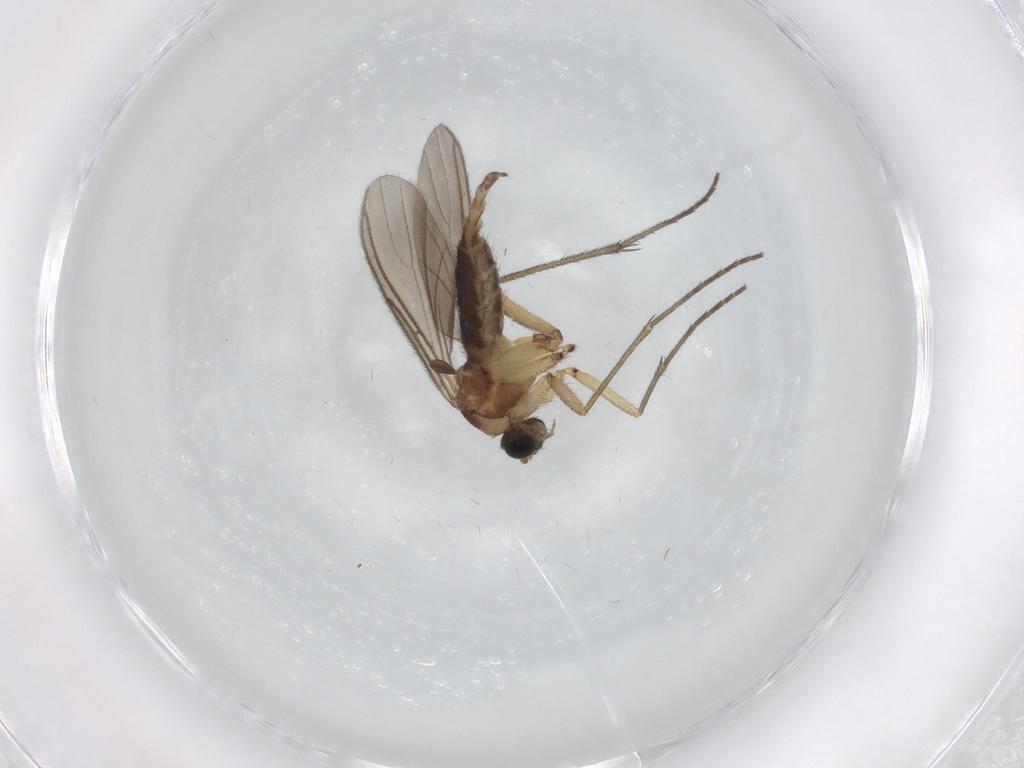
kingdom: Animalia
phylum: Arthropoda
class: Insecta
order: Diptera
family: Sciaridae
